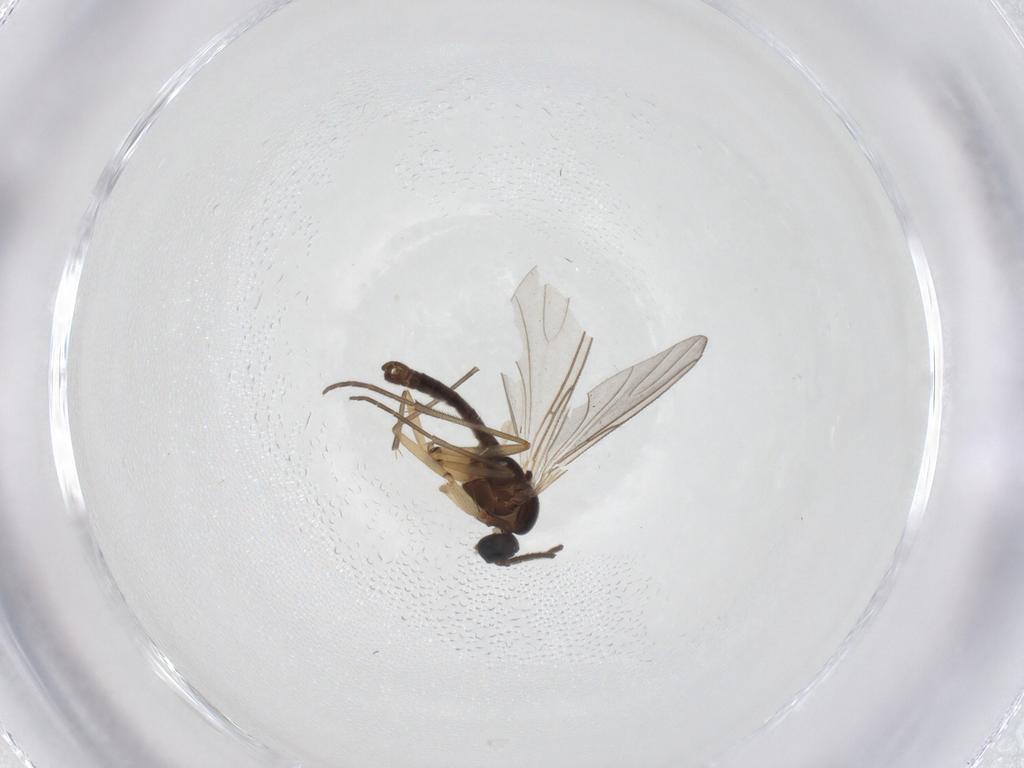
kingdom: Animalia
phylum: Arthropoda
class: Insecta
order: Diptera
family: Sciaridae
